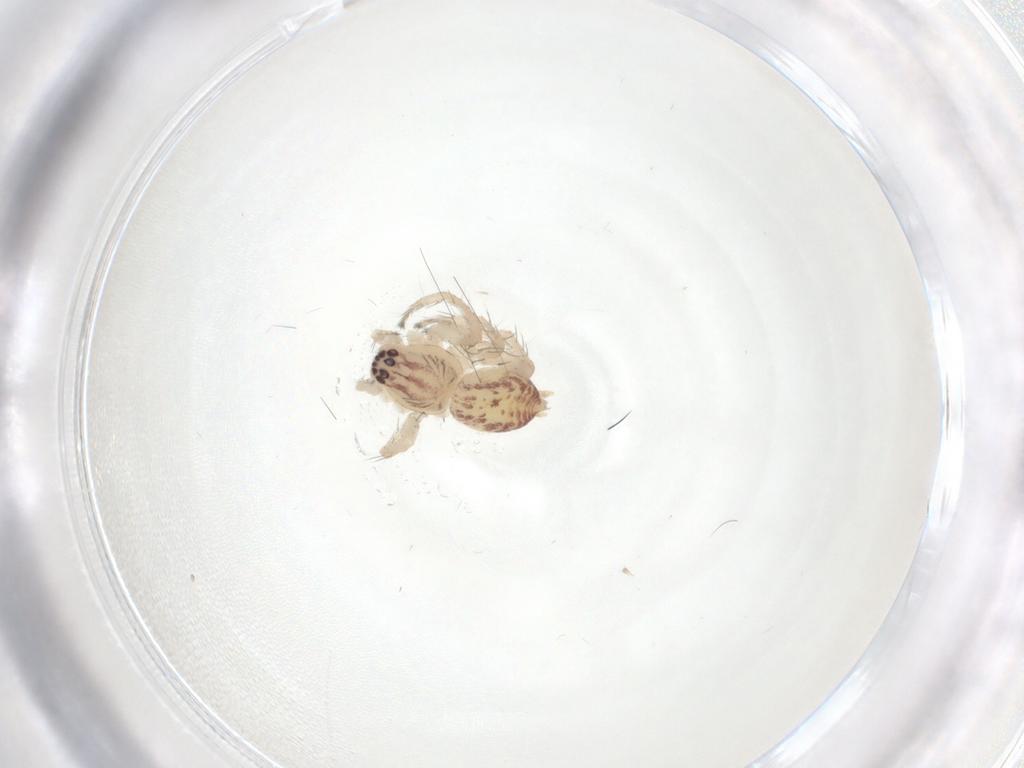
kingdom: Animalia
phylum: Arthropoda
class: Arachnida
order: Araneae
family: Anyphaenidae
